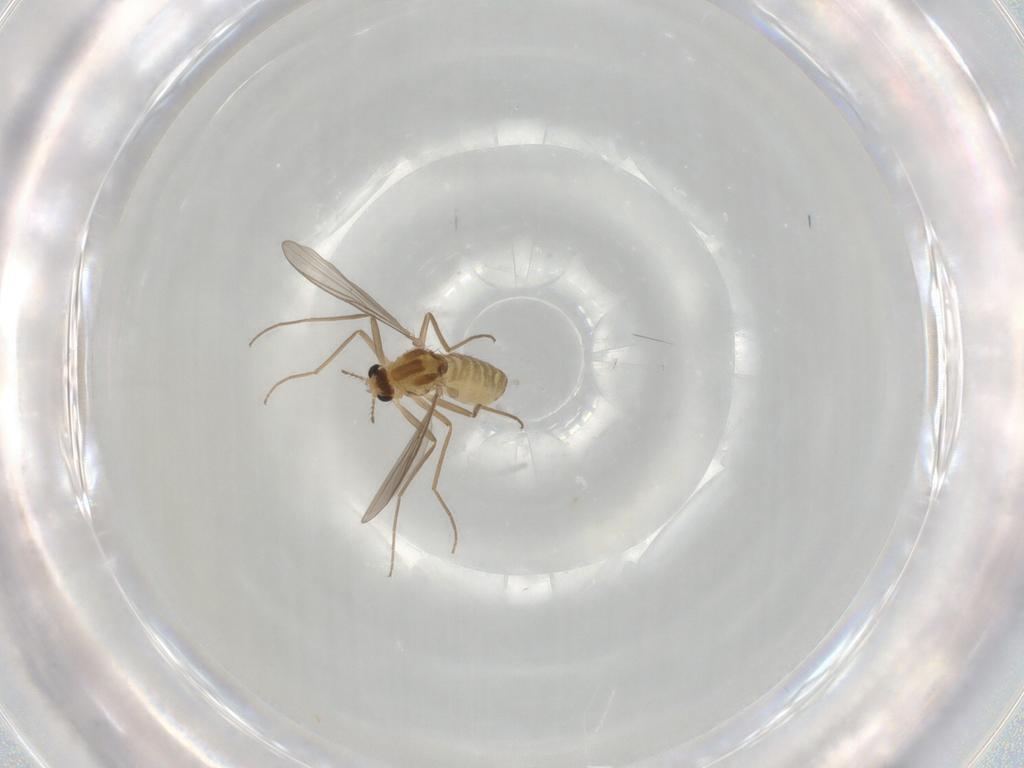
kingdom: Animalia
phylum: Arthropoda
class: Insecta
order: Diptera
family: Chironomidae
